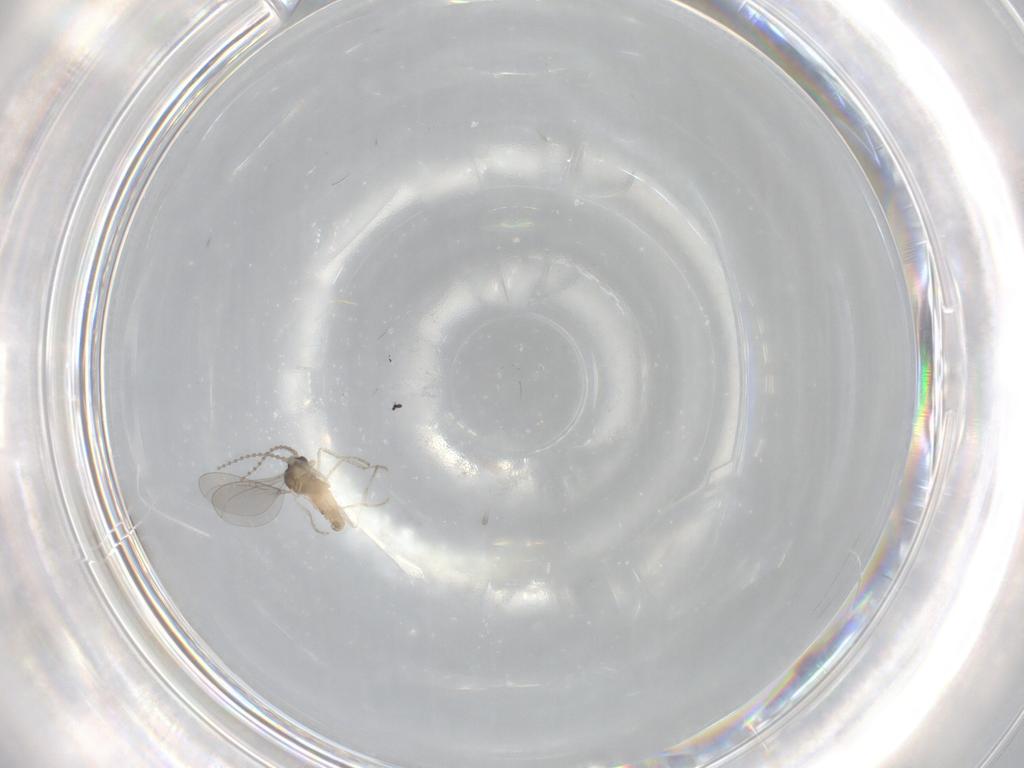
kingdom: Animalia
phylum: Arthropoda
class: Insecta
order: Diptera
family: Cecidomyiidae
